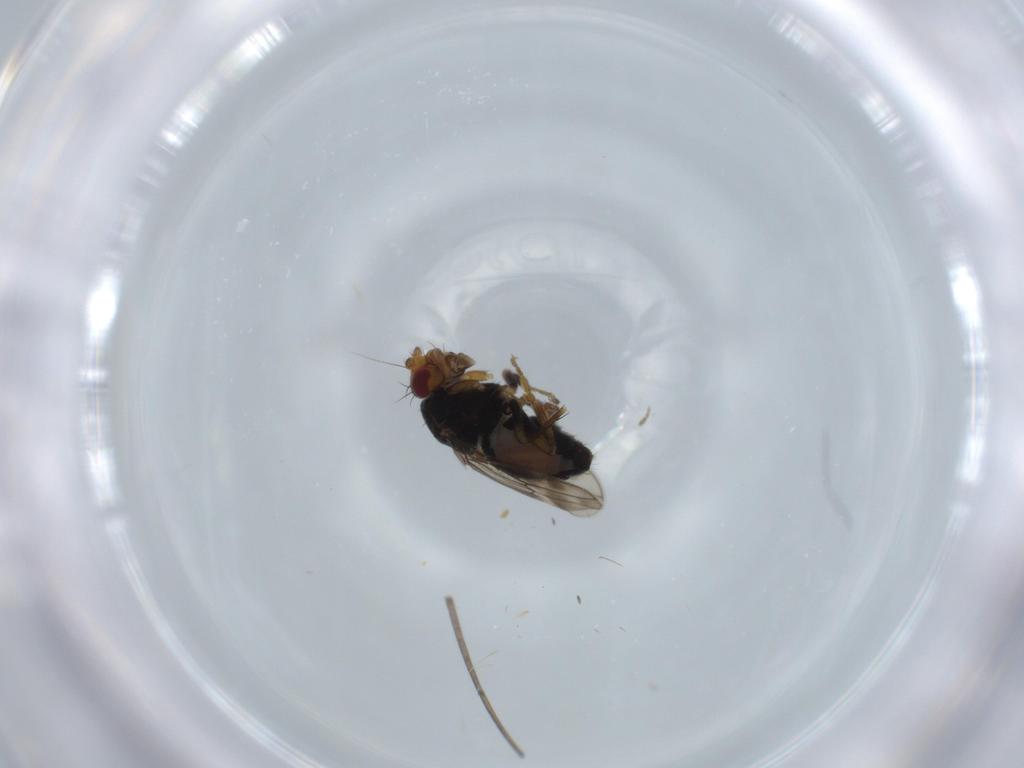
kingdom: Animalia
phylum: Arthropoda
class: Insecta
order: Diptera
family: Sphaeroceridae
